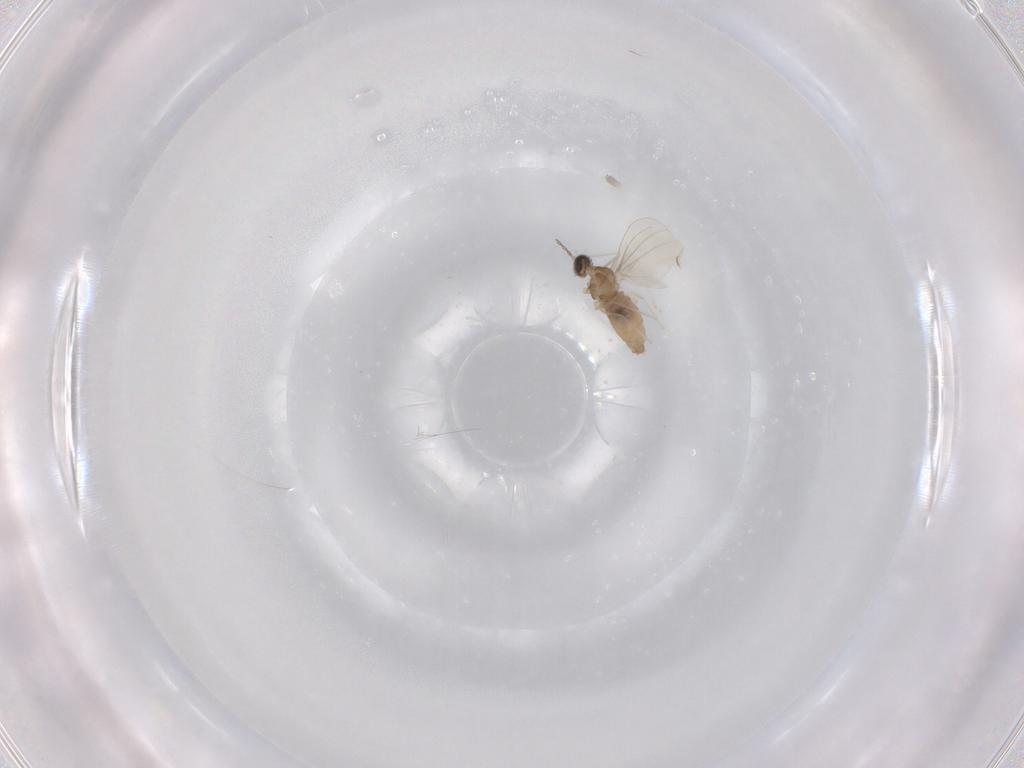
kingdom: Animalia
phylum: Arthropoda
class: Insecta
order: Diptera
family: Cecidomyiidae
